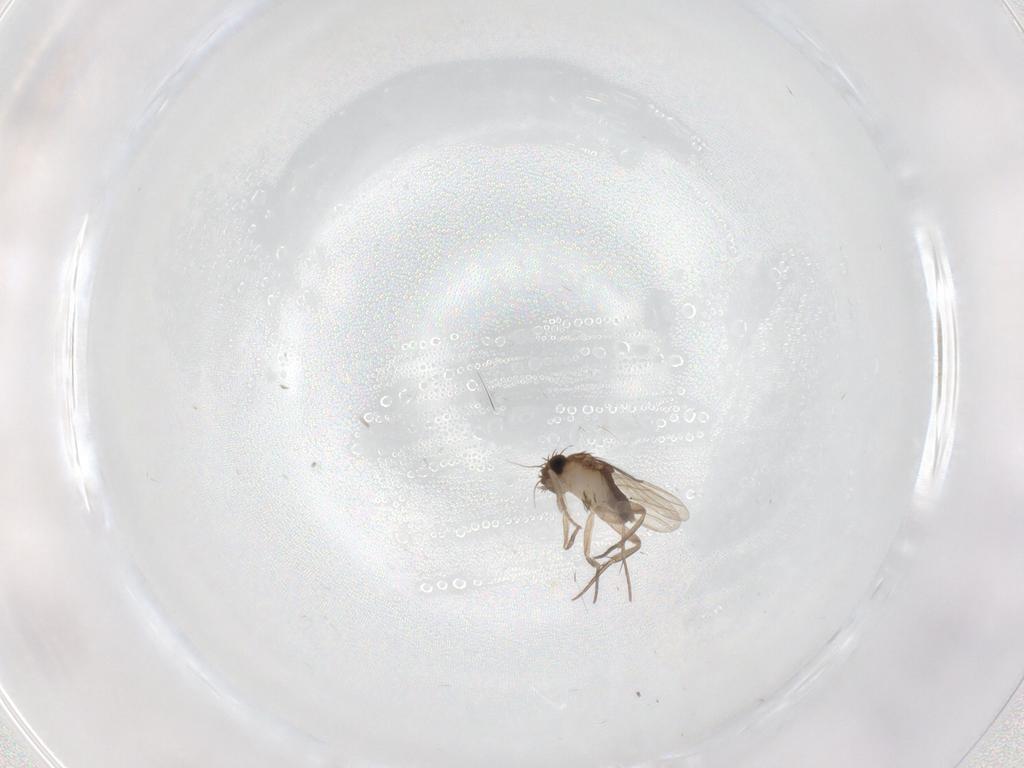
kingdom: Animalia
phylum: Arthropoda
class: Insecta
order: Diptera
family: Phoridae
